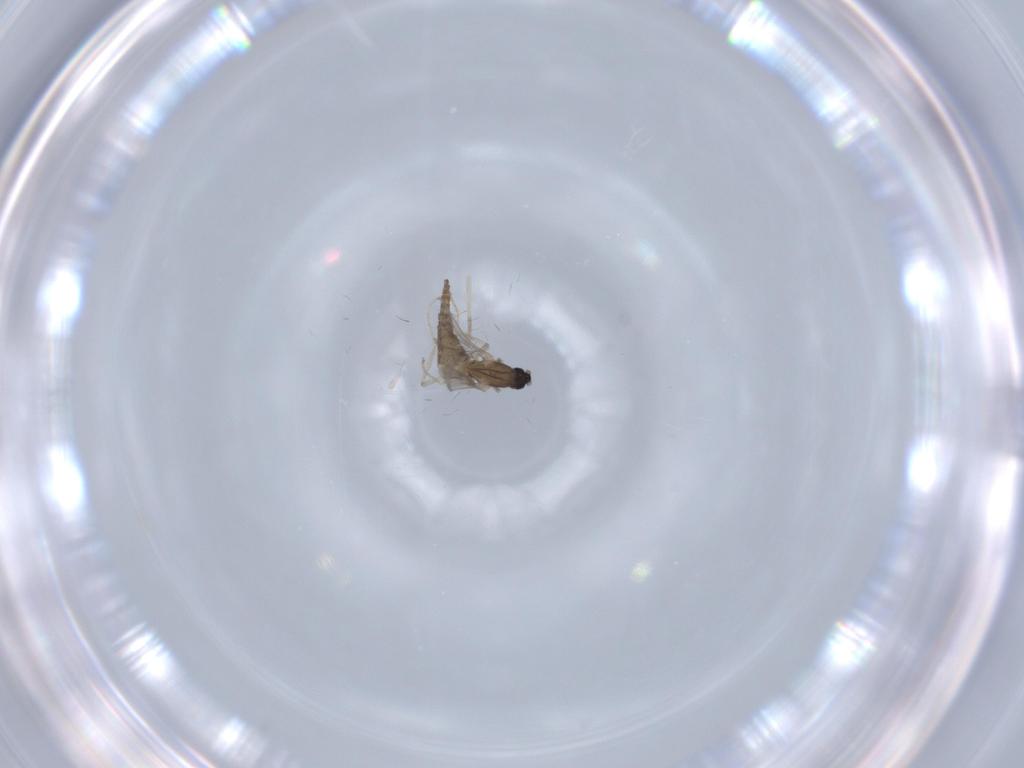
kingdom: Animalia
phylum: Arthropoda
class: Insecta
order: Diptera
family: Cecidomyiidae
